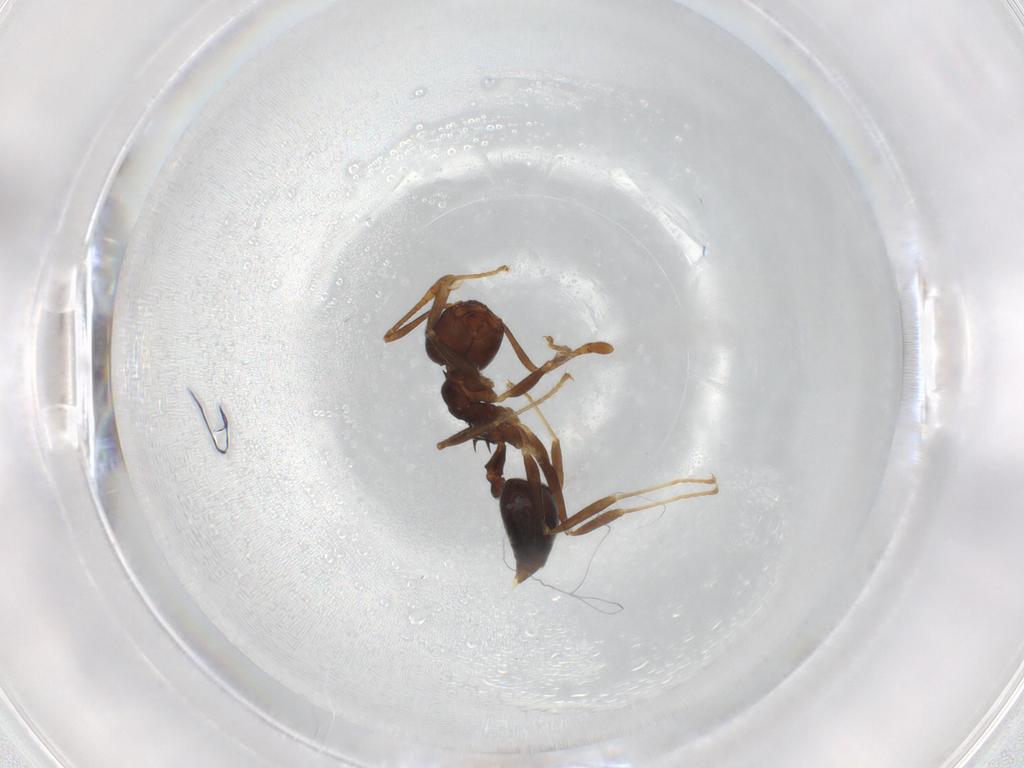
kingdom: Animalia
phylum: Arthropoda
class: Insecta
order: Hymenoptera
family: Formicidae
